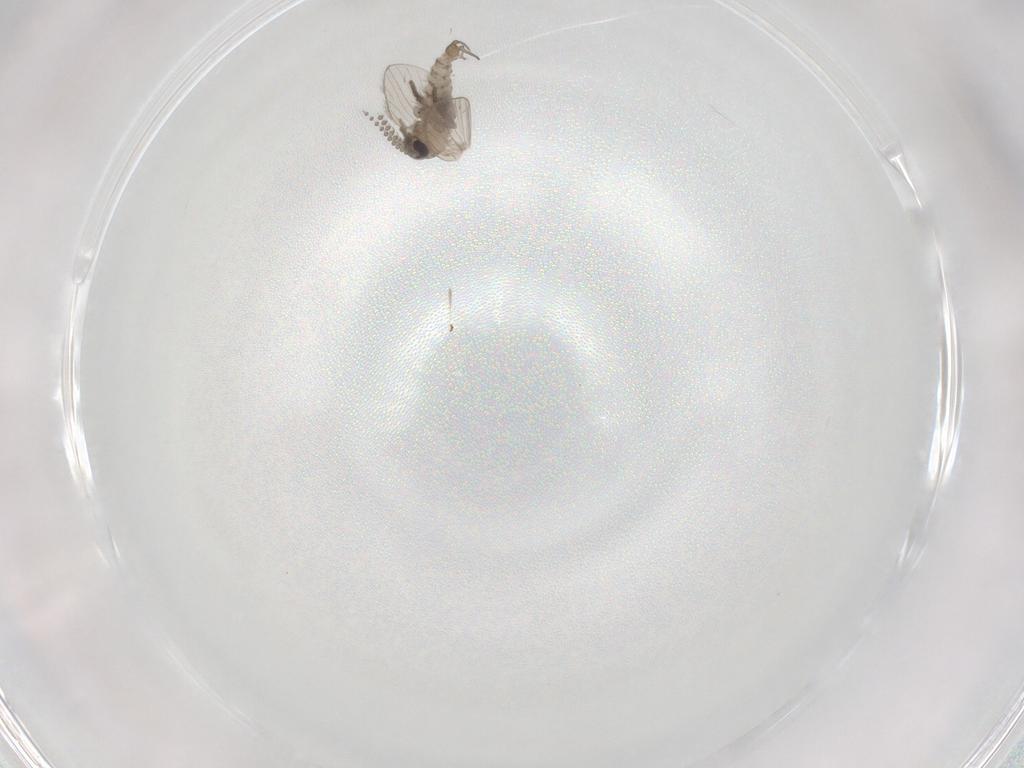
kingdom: Animalia
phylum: Arthropoda
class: Insecta
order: Diptera
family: Psychodidae
